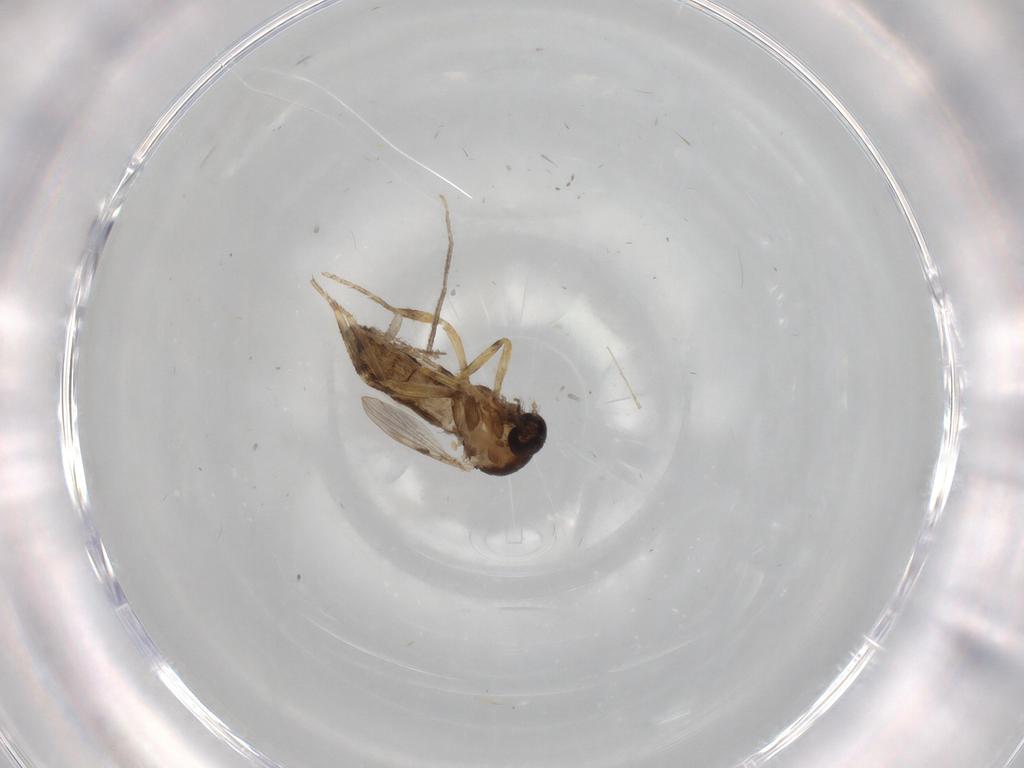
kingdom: Animalia
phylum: Arthropoda
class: Insecta
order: Diptera
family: Ceratopogonidae
